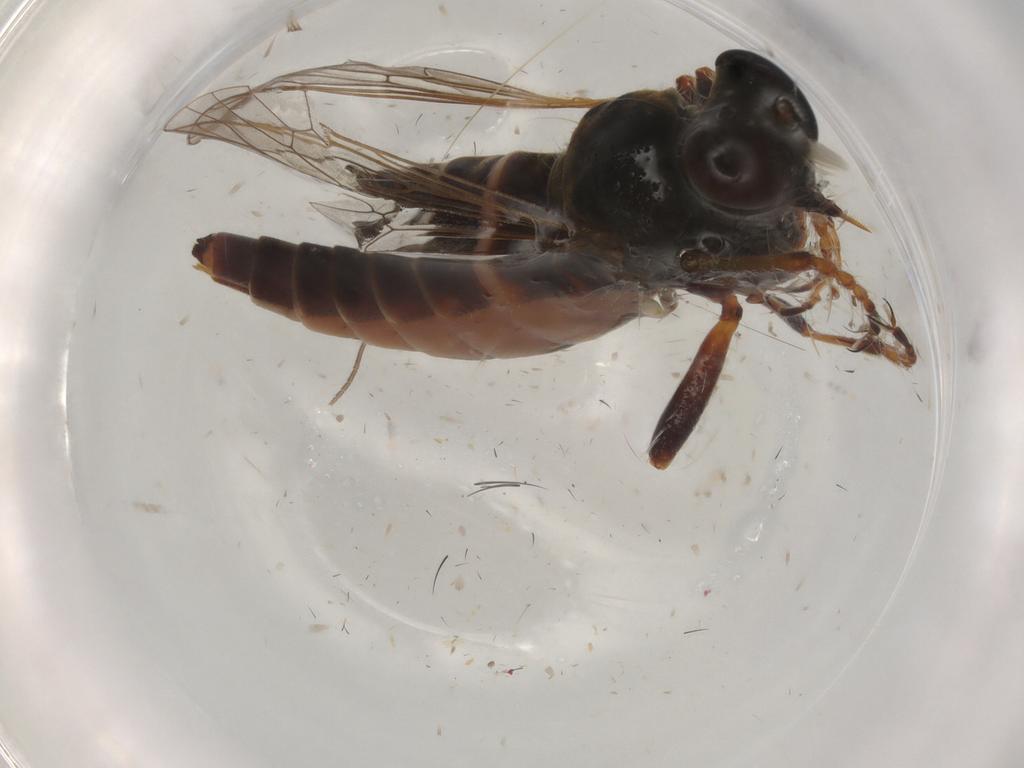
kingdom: Animalia
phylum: Arthropoda
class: Insecta
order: Diptera
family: Asilidae
